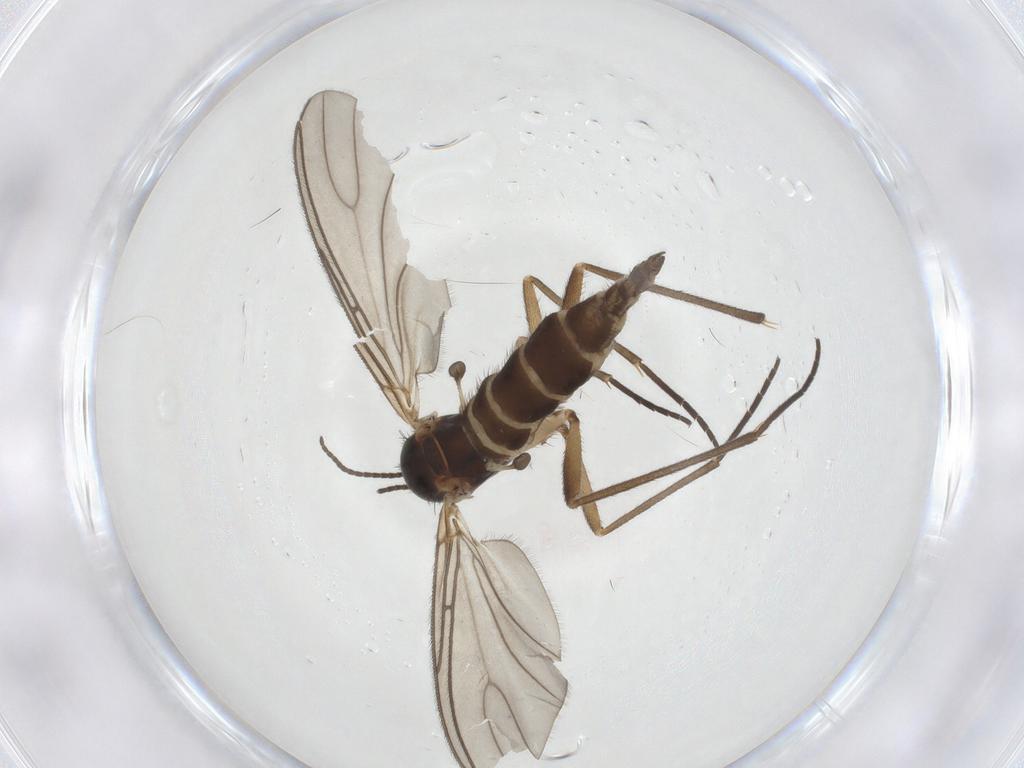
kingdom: Animalia
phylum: Arthropoda
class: Insecta
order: Diptera
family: Sciaridae
